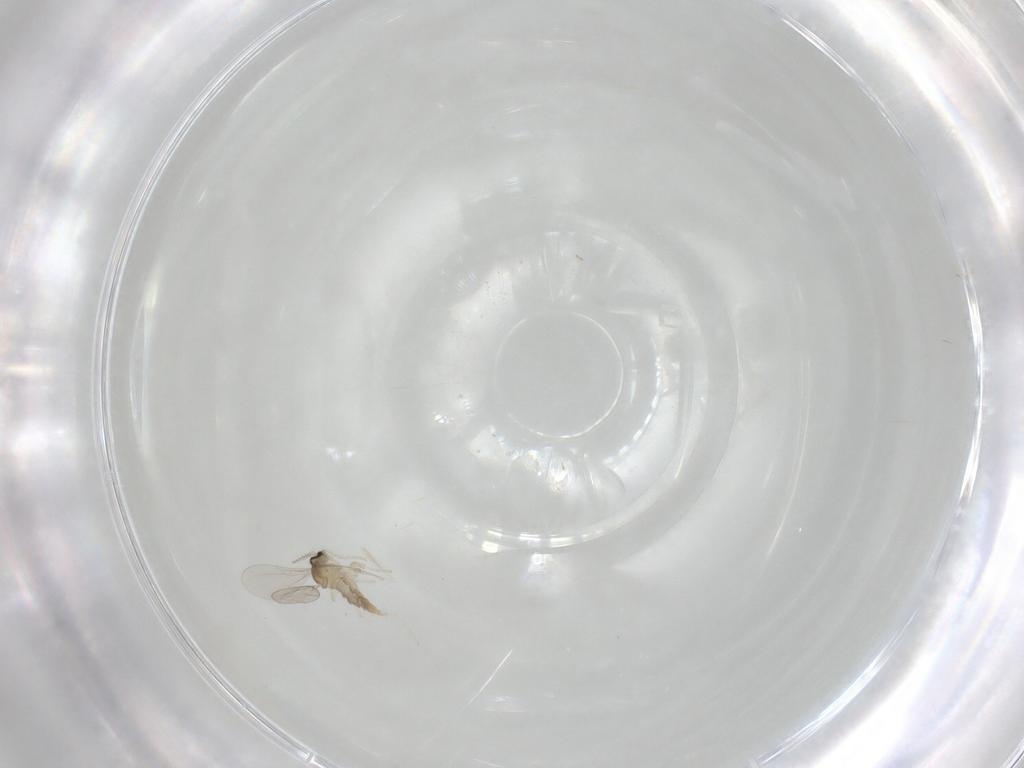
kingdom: Animalia
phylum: Arthropoda
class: Insecta
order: Diptera
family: Cecidomyiidae
